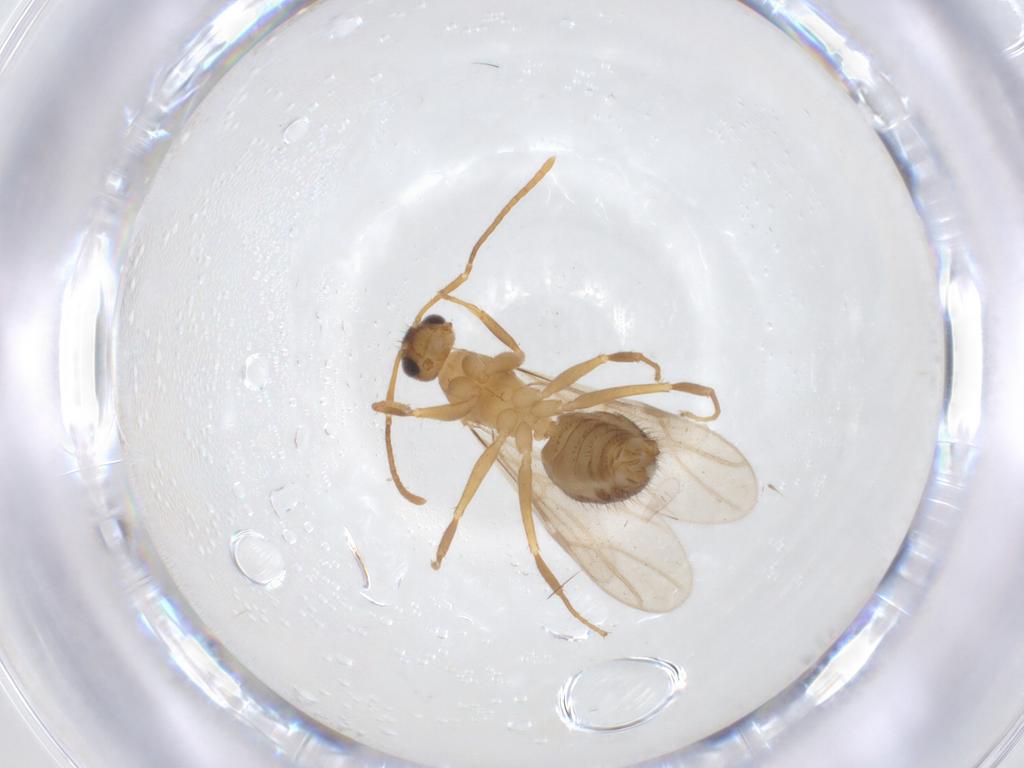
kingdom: Animalia
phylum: Arthropoda
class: Insecta
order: Hymenoptera
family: Formicidae
